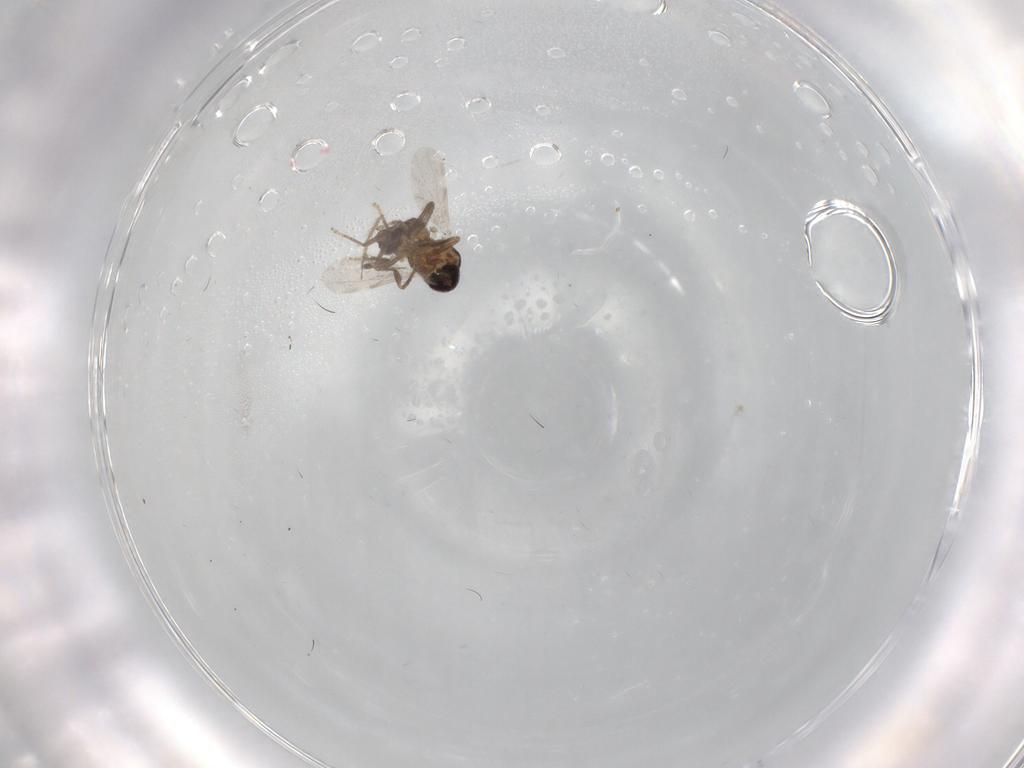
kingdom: Animalia
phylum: Arthropoda
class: Insecta
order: Diptera
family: Ceratopogonidae
